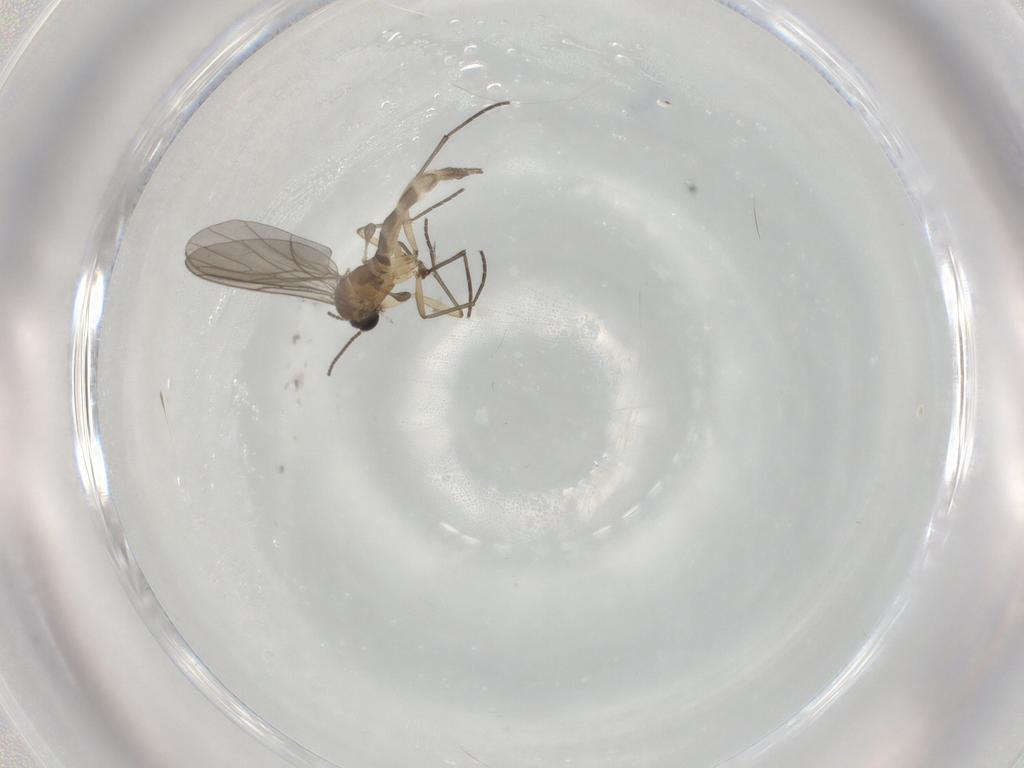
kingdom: Animalia
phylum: Arthropoda
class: Insecta
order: Diptera
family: Sciaridae
